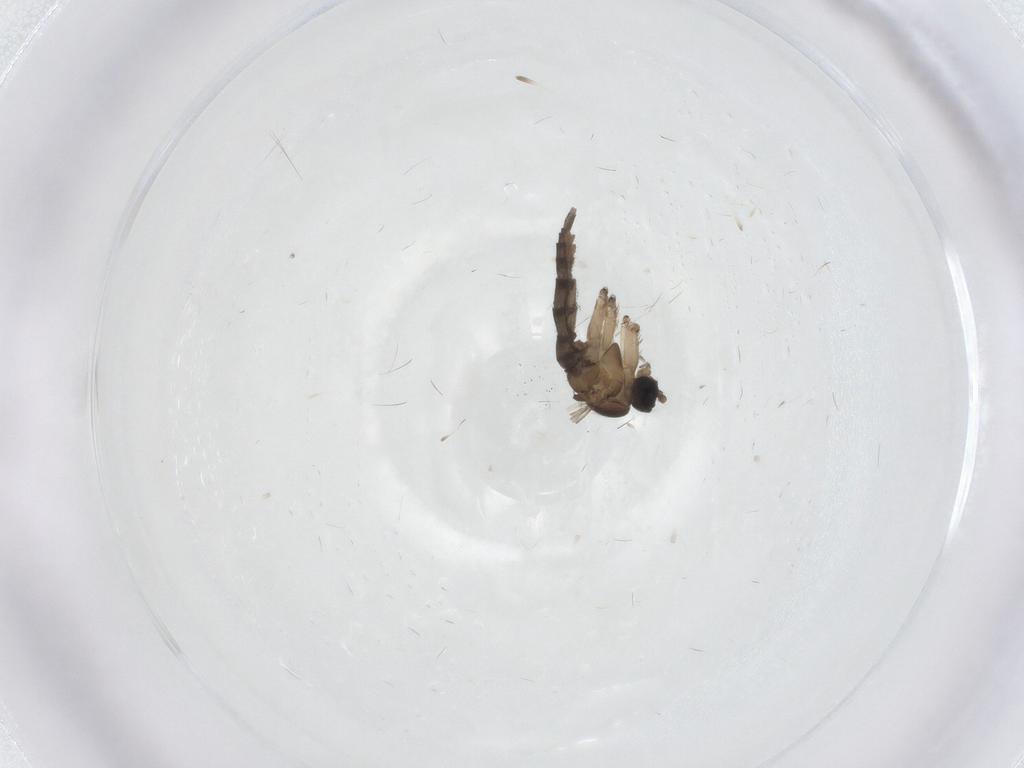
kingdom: Animalia
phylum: Arthropoda
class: Insecta
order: Diptera
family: Sciaridae
